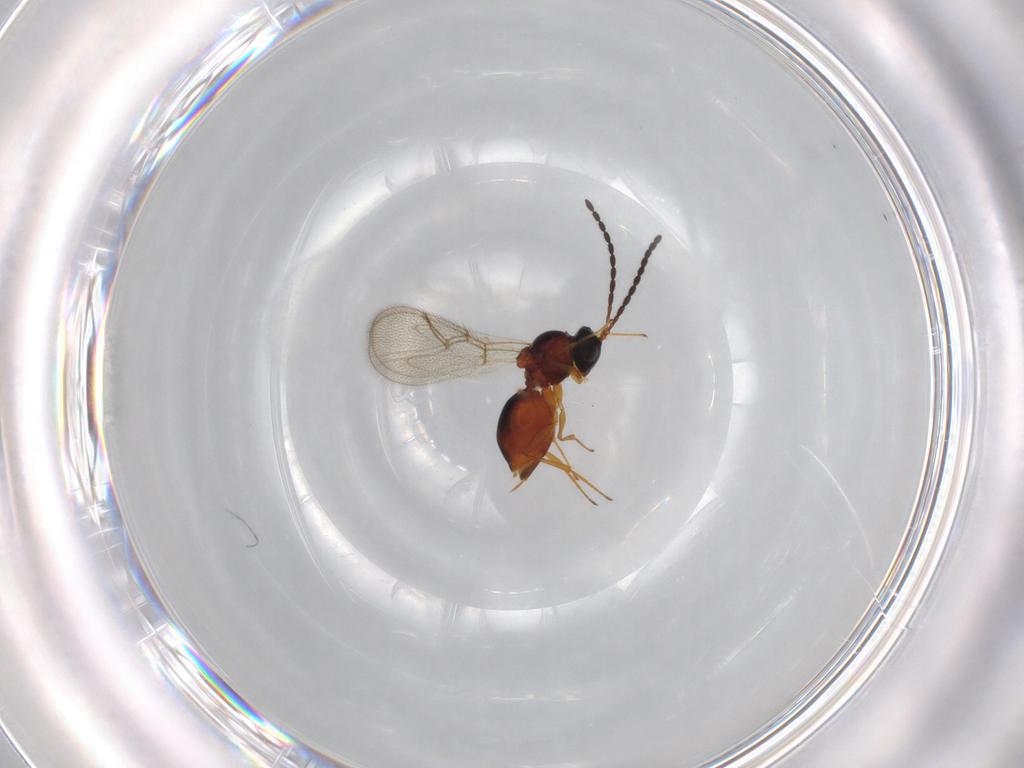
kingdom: Animalia
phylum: Arthropoda
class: Insecta
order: Hymenoptera
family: Figitidae
